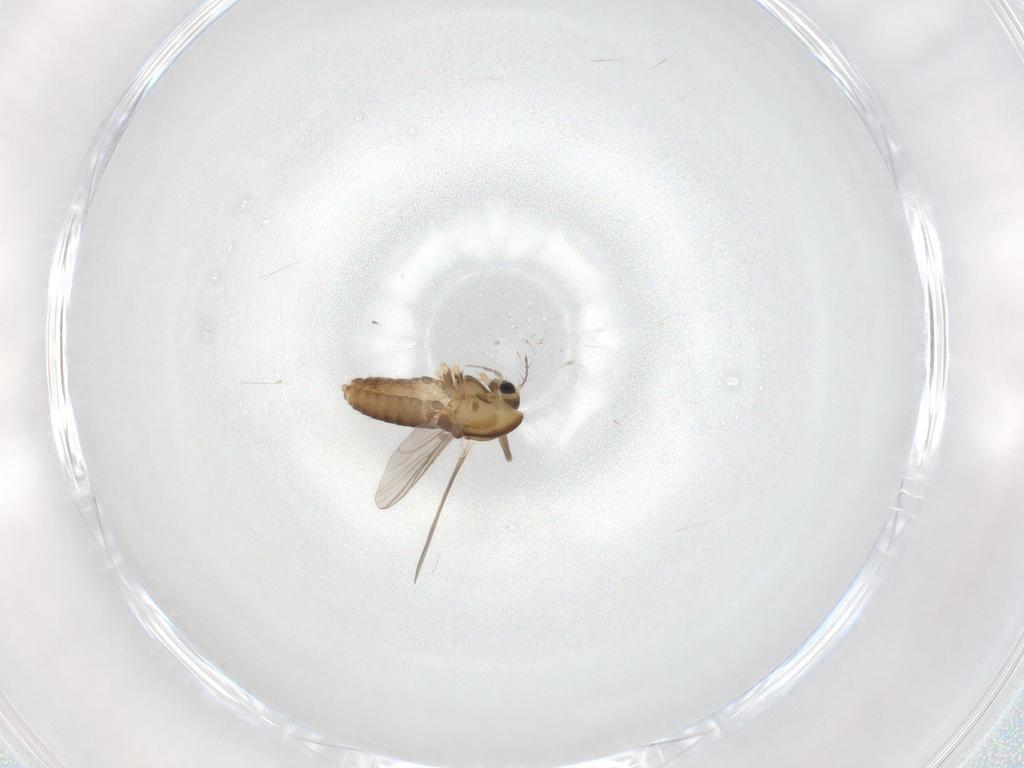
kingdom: Animalia
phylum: Arthropoda
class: Insecta
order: Diptera
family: Chironomidae
